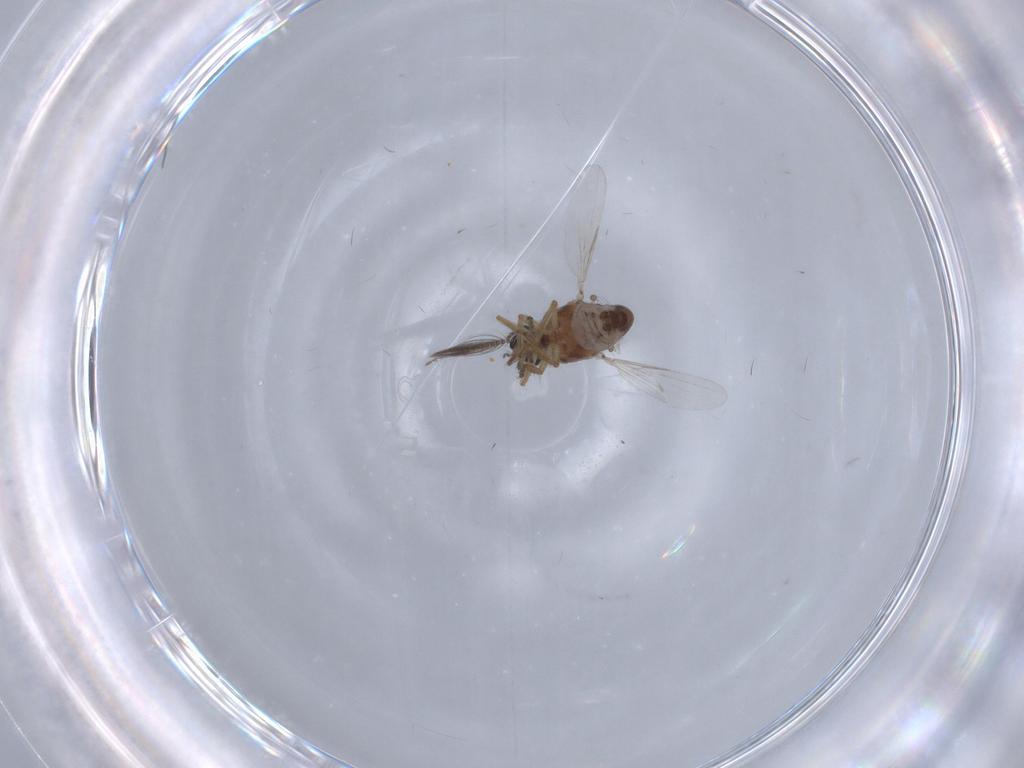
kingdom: Animalia
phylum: Arthropoda
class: Insecta
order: Diptera
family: Ceratopogonidae
